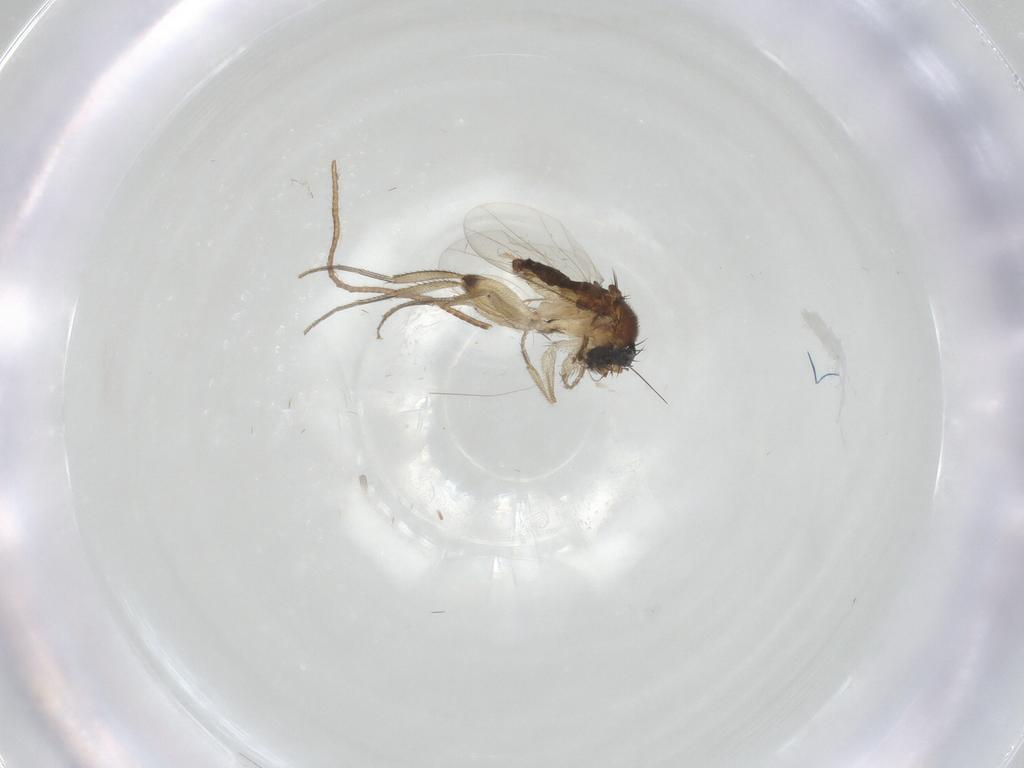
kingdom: Animalia
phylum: Arthropoda
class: Insecta
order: Diptera
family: Phoridae
